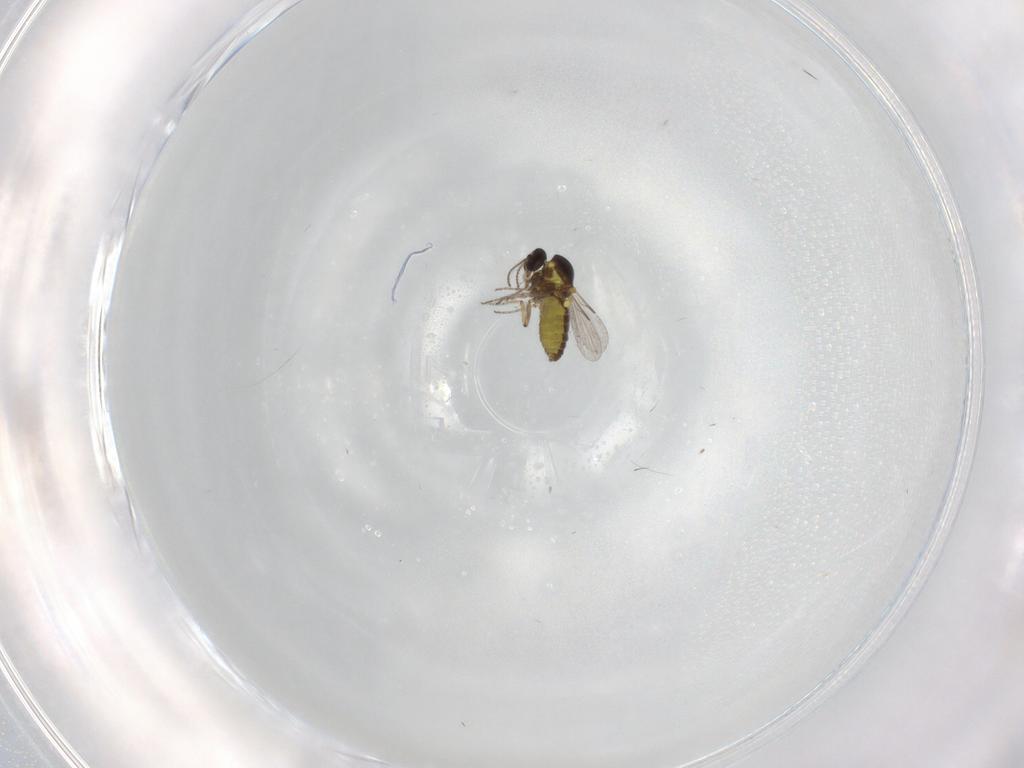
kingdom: Animalia
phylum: Arthropoda
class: Insecta
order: Diptera
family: Ceratopogonidae
